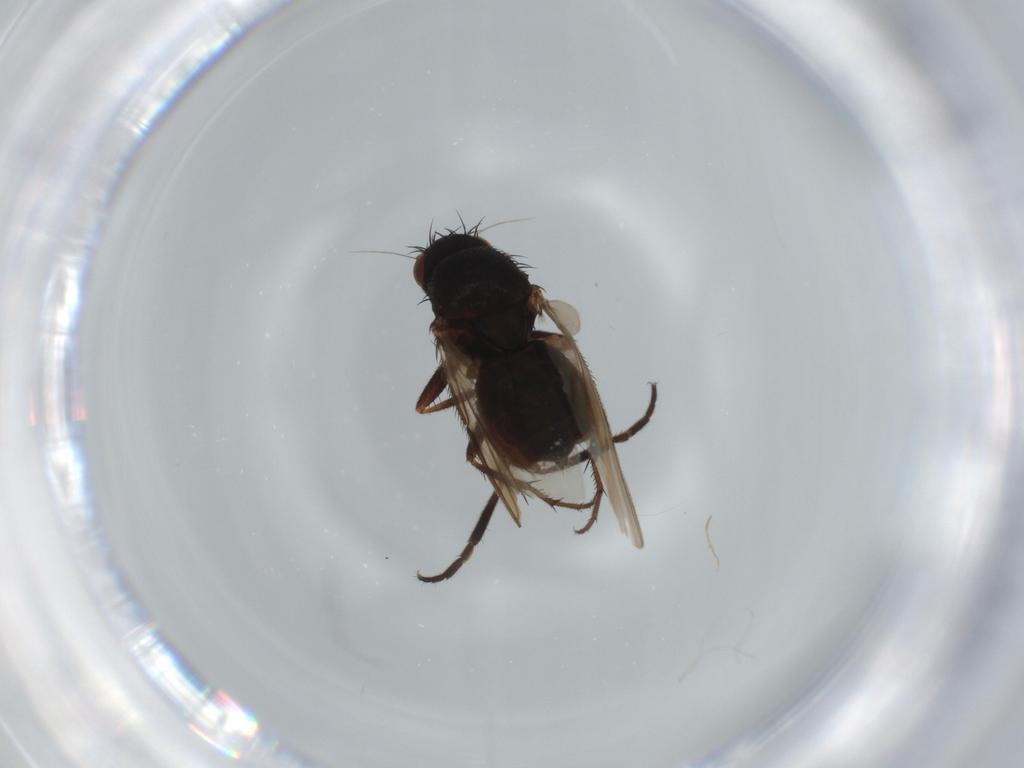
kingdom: Animalia
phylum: Arthropoda
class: Insecta
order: Diptera
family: Sphaeroceridae
